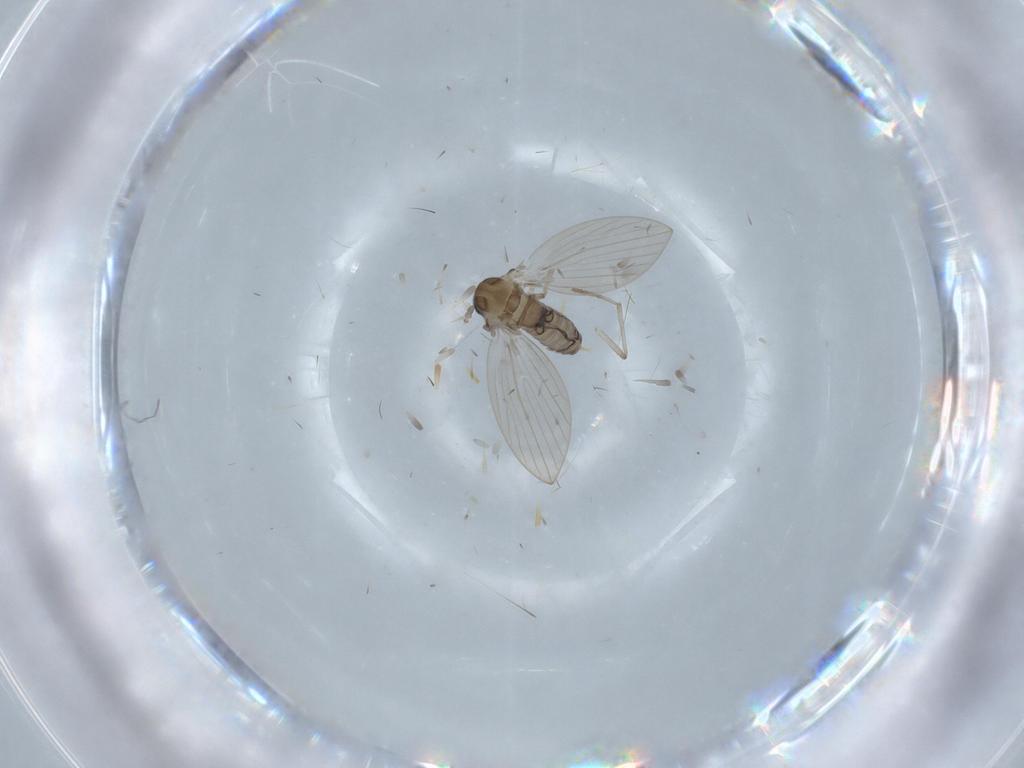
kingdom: Animalia
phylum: Arthropoda
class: Insecta
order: Diptera
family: Psychodidae
